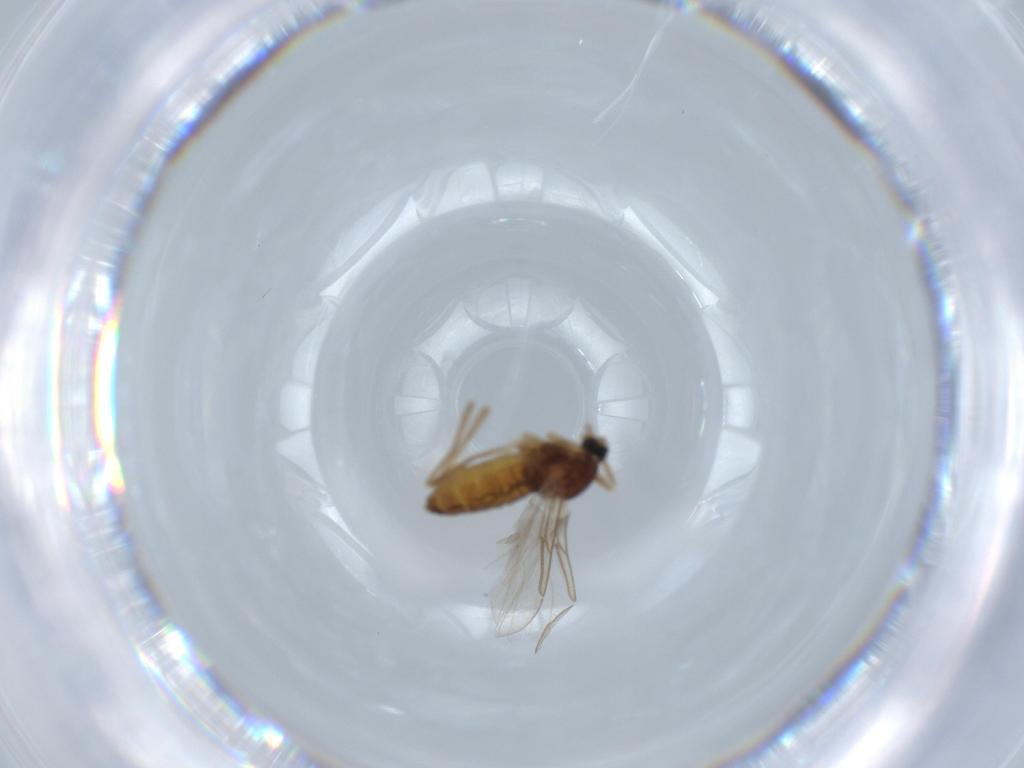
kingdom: Animalia
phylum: Arthropoda
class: Insecta
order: Diptera
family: Cecidomyiidae
